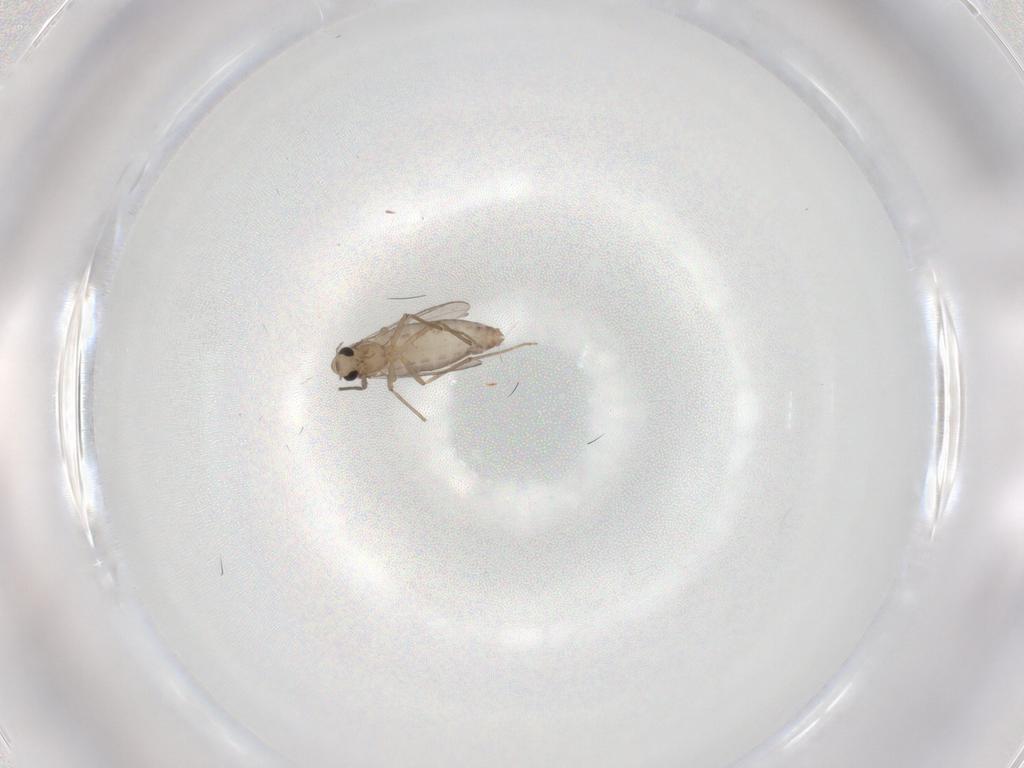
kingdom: Animalia
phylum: Arthropoda
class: Insecta
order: Diptera
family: Chironomidae
